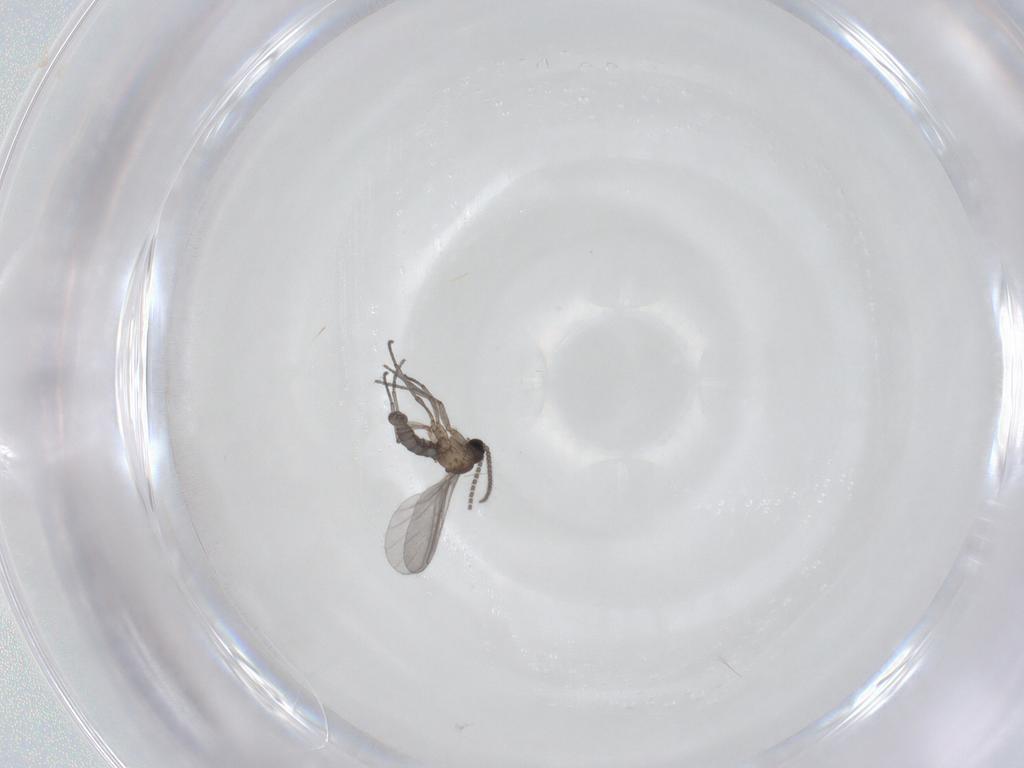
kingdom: Animalia
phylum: Arthropoda
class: Insecta
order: Diptera
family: Sciaridae
